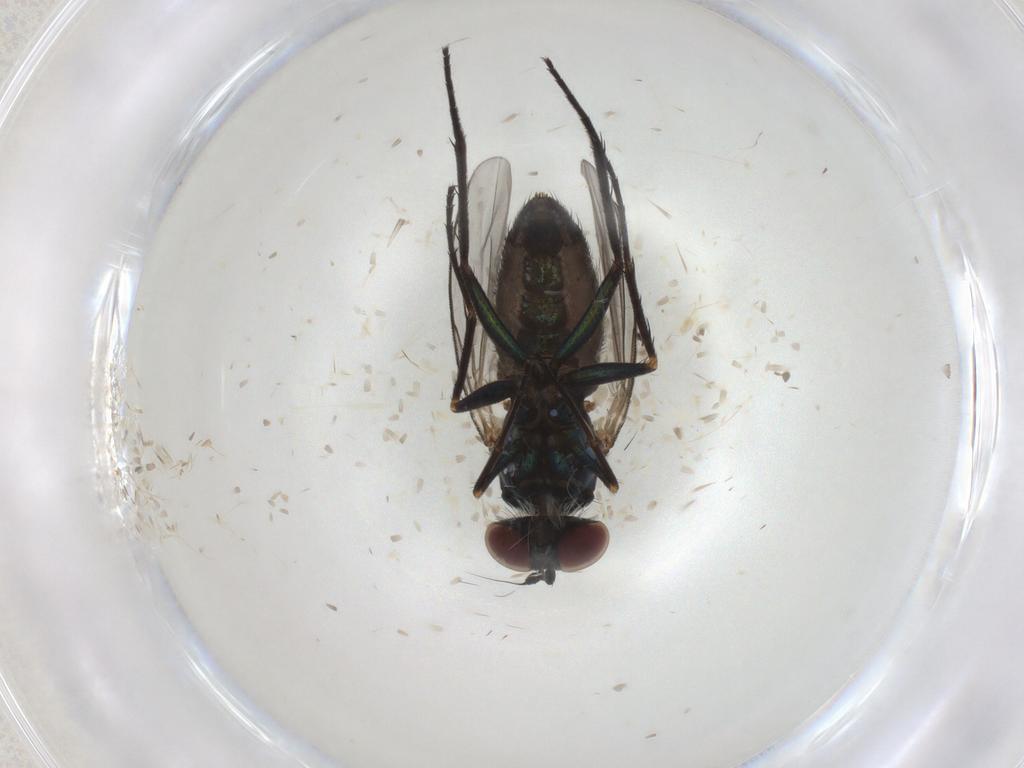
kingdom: Animalia
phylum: Arthropoda
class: Insecta
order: Diptera
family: Dolichopodidae
